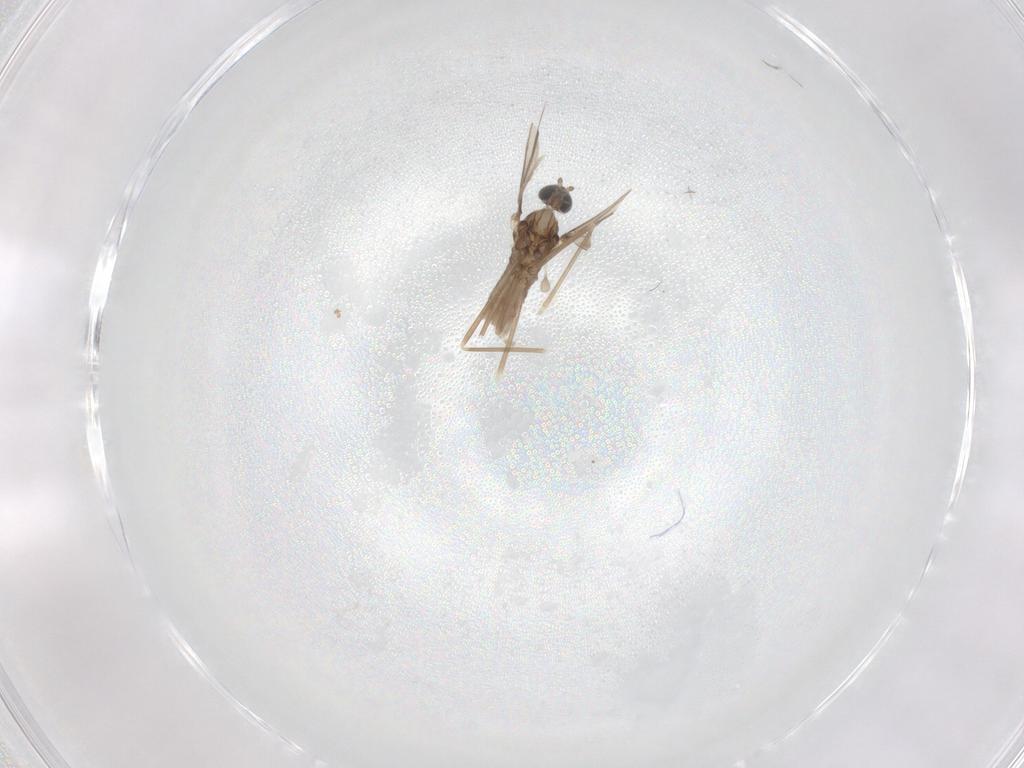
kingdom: Animalia
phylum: Arthropoda
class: Insecta
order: Diptera
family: Cecidomyiidae
